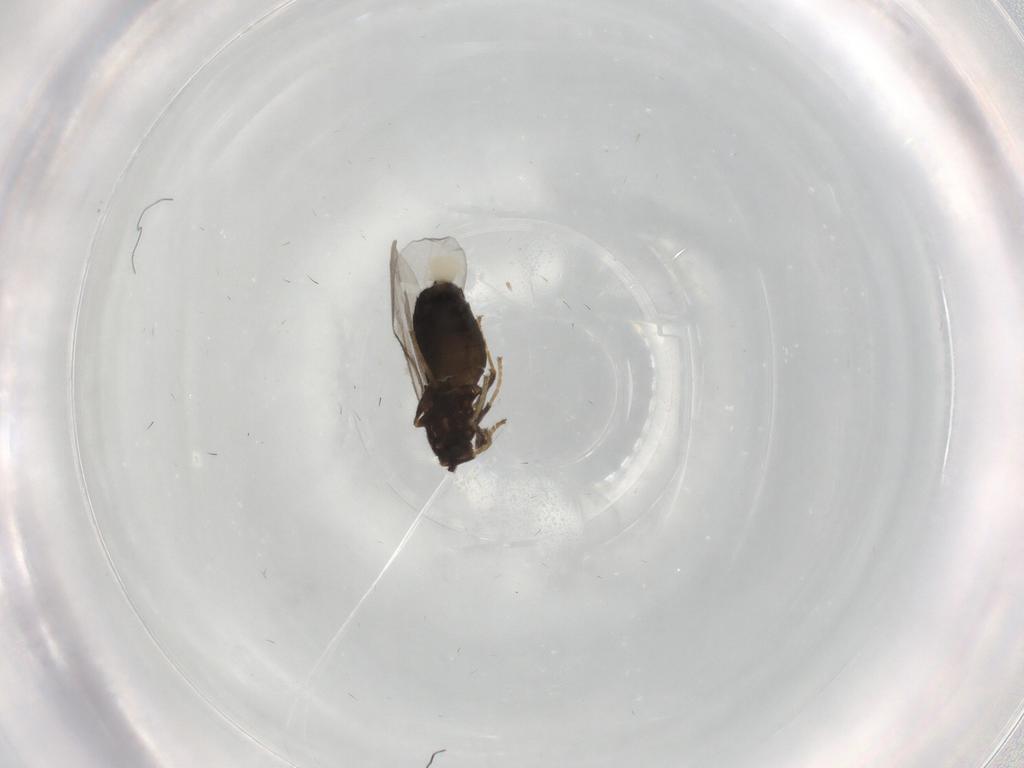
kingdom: Animalia
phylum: Arthropoda
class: Insecta
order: Diptera
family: Scatopsidae
